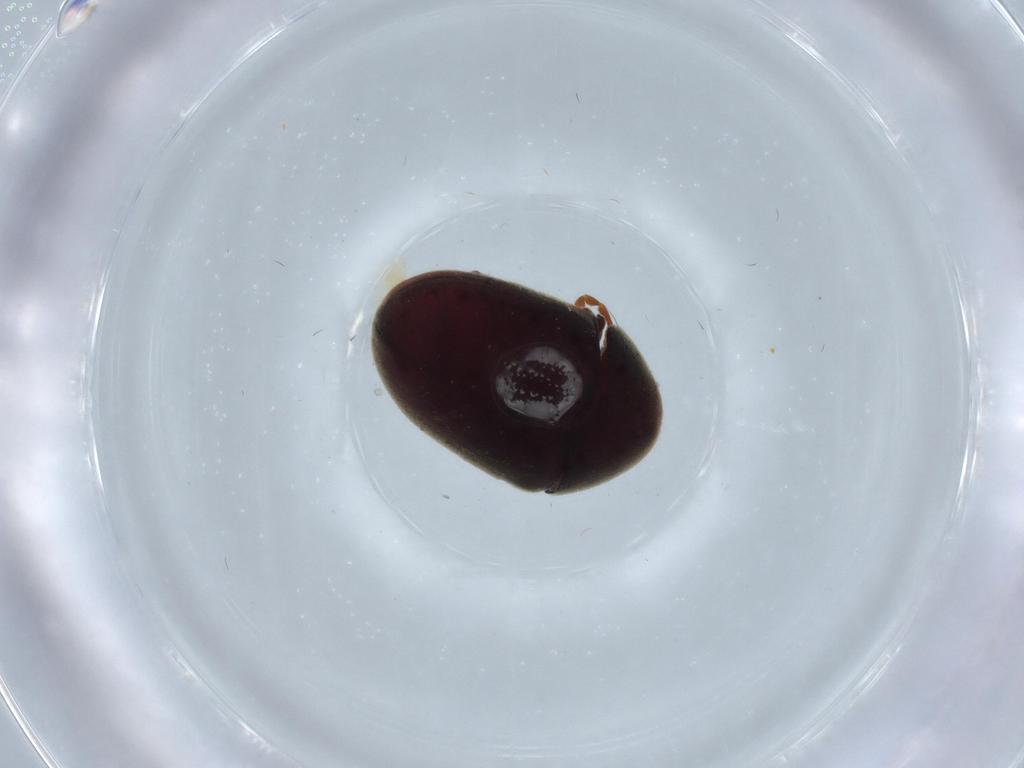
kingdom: Animalia
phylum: Arthropoda
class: Insecta
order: Coleoptera
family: Ptinidae
